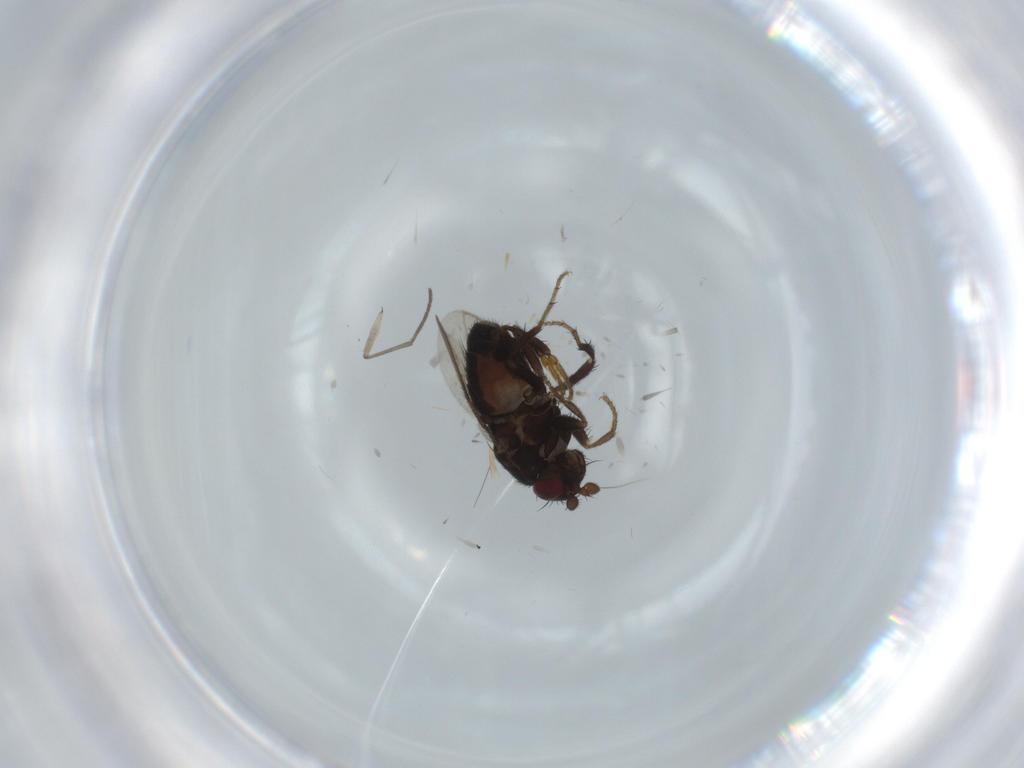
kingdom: Animalia
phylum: Arthropoda
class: Insecta
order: Diptera
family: Sphaeroceridae
